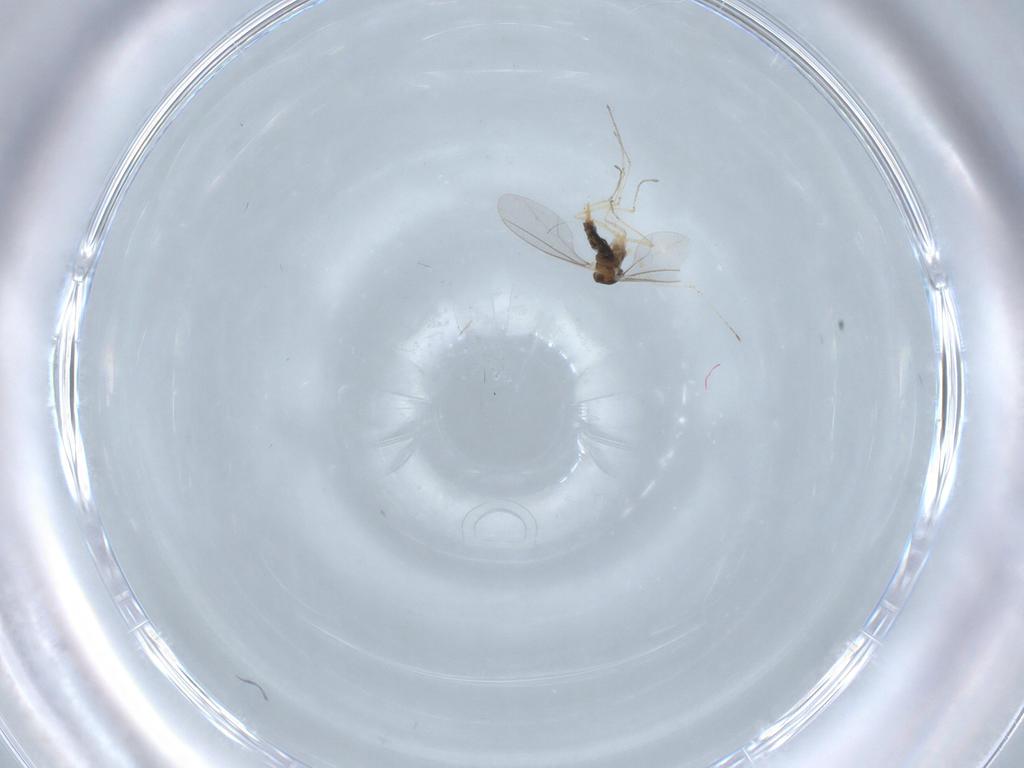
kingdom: Animalia
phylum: Arthropoda
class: Insecta
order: Diptera
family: Cecidomyiidae
